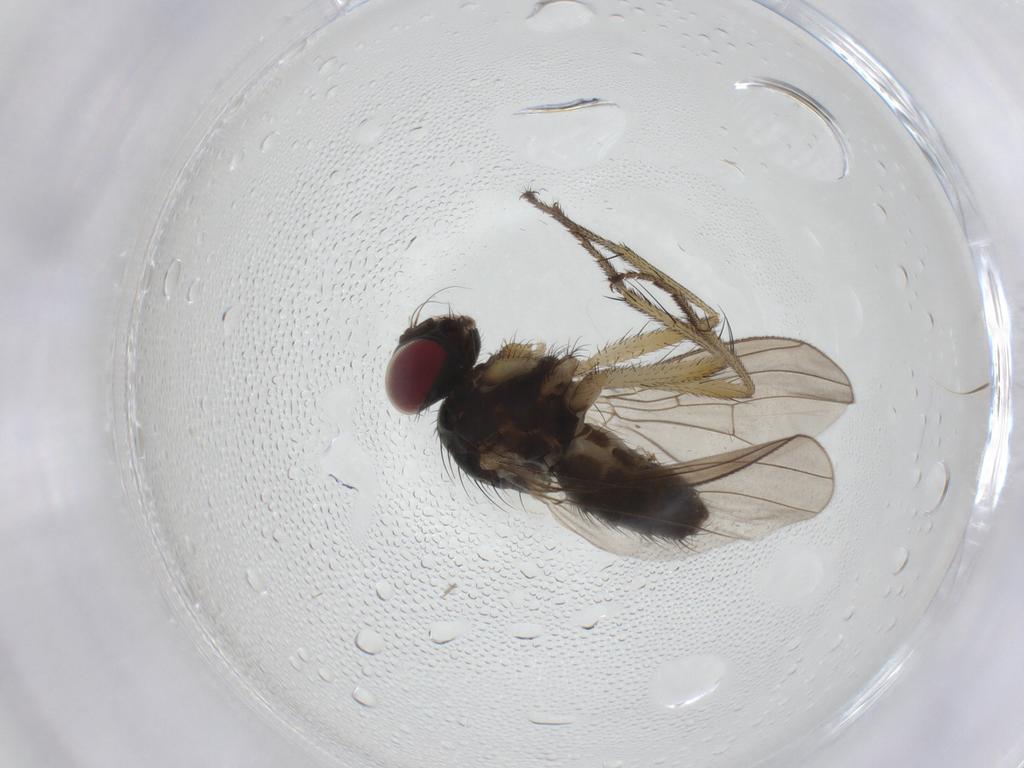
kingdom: Animalia
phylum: Arthropoda
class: Insecta
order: Diptera
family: Muscidae
